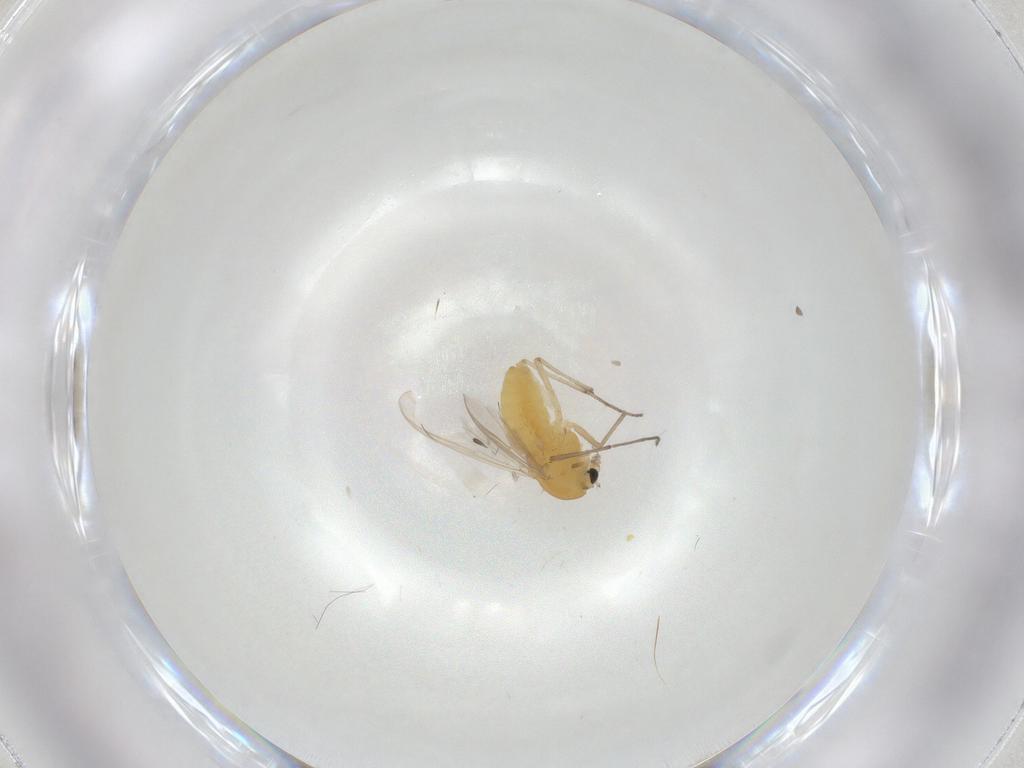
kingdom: Animalia
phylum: Arthropoda
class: Insecta
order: Diptera
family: Chironomidae
